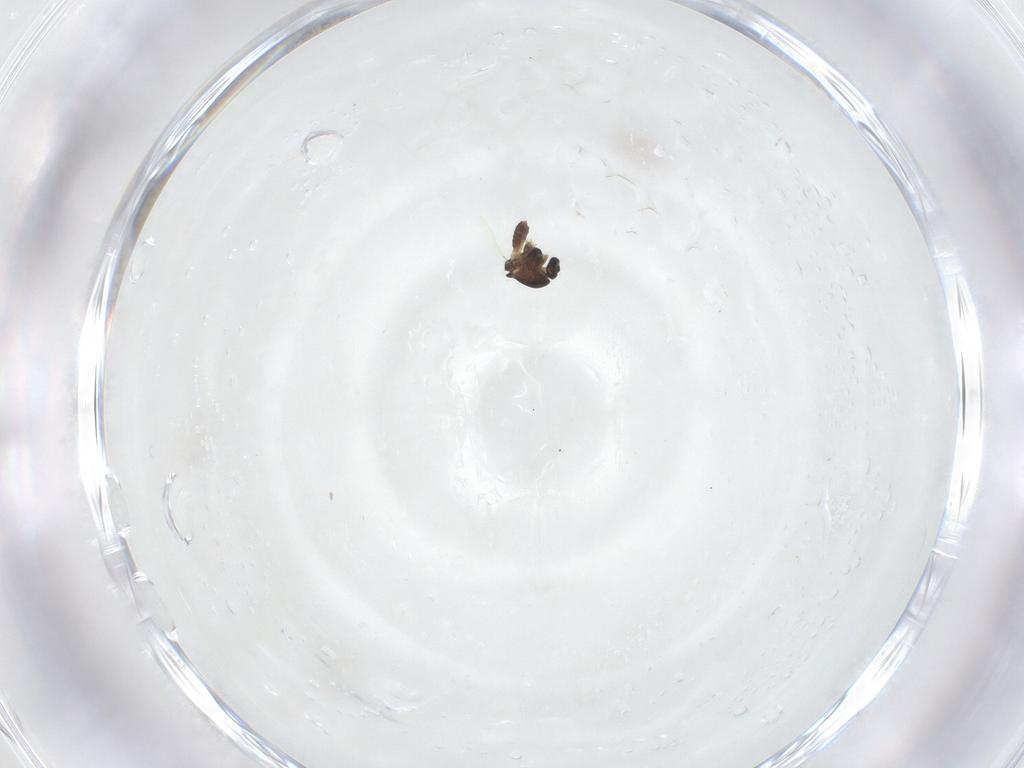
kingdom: Animalia
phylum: Arthropoda
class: Insecta
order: Diptera
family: Chironomidae
